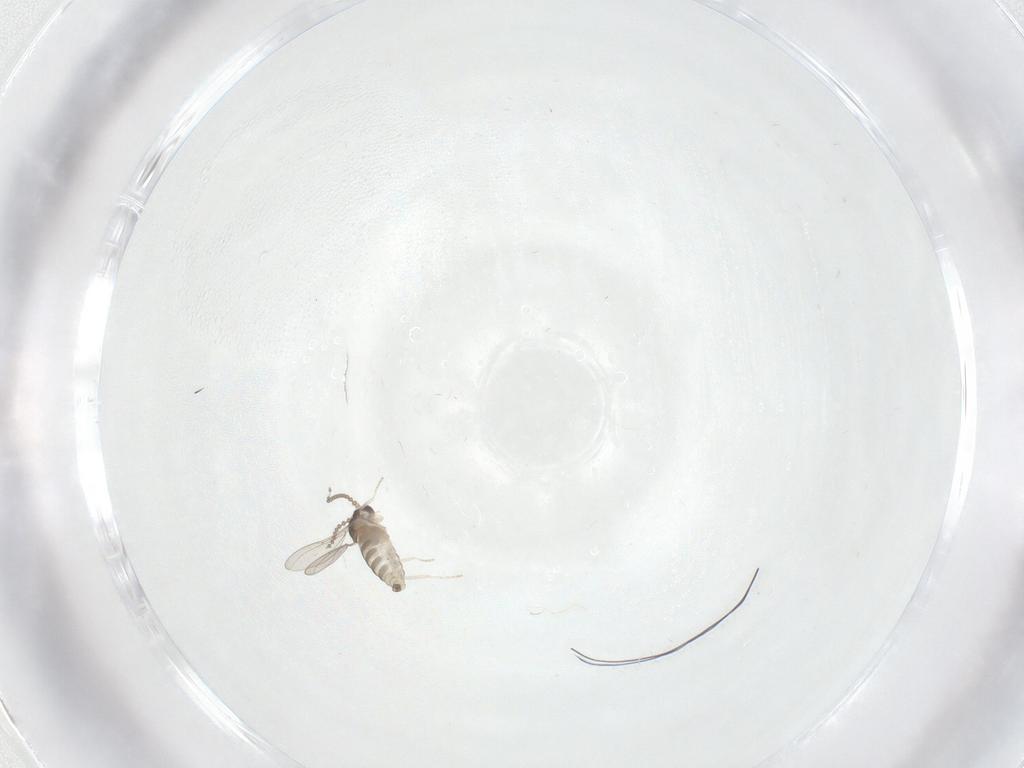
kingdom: Animalia
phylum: Arthropoda
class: Insecta
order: Diptera
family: Cecidomyiidae
